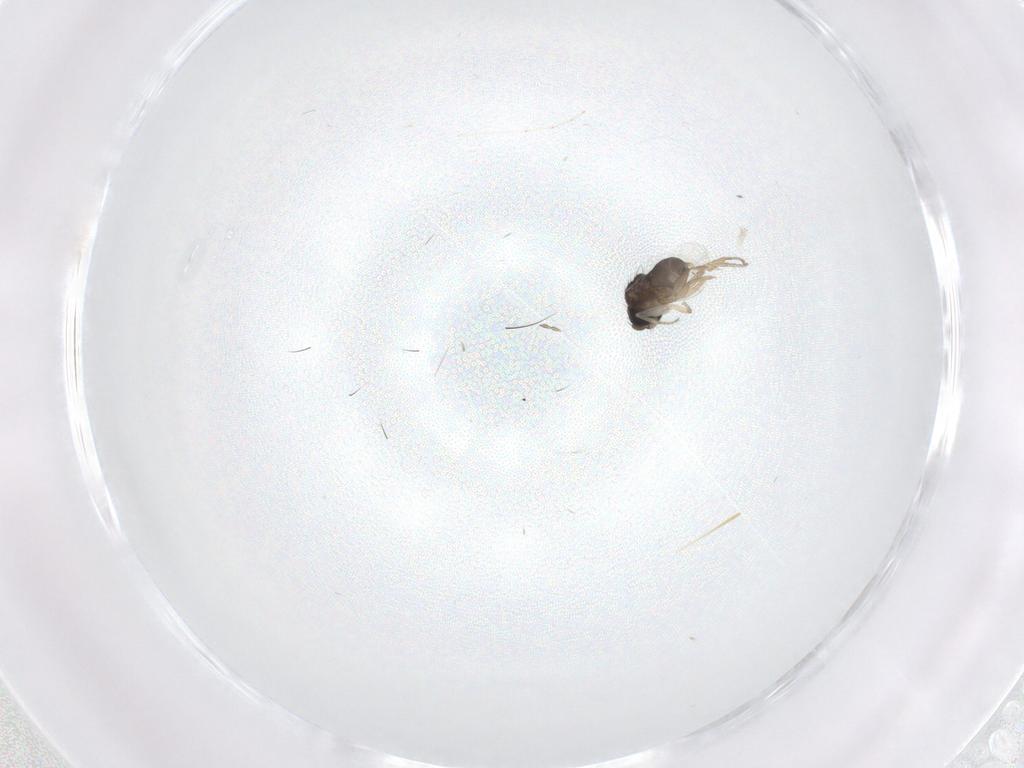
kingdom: Animalia
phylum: Arthropoda
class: Insecta
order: Diptera
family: Phoridae
